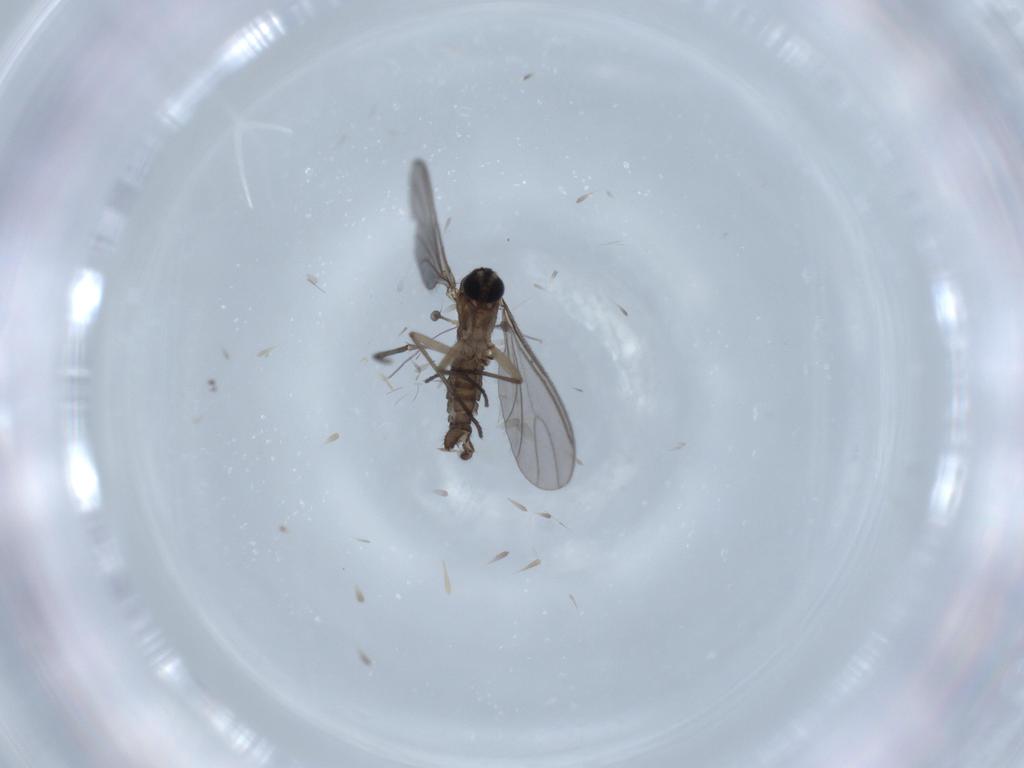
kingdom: Animalia
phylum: Arthropoda
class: Insecta
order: Diptera
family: Sciaridae
